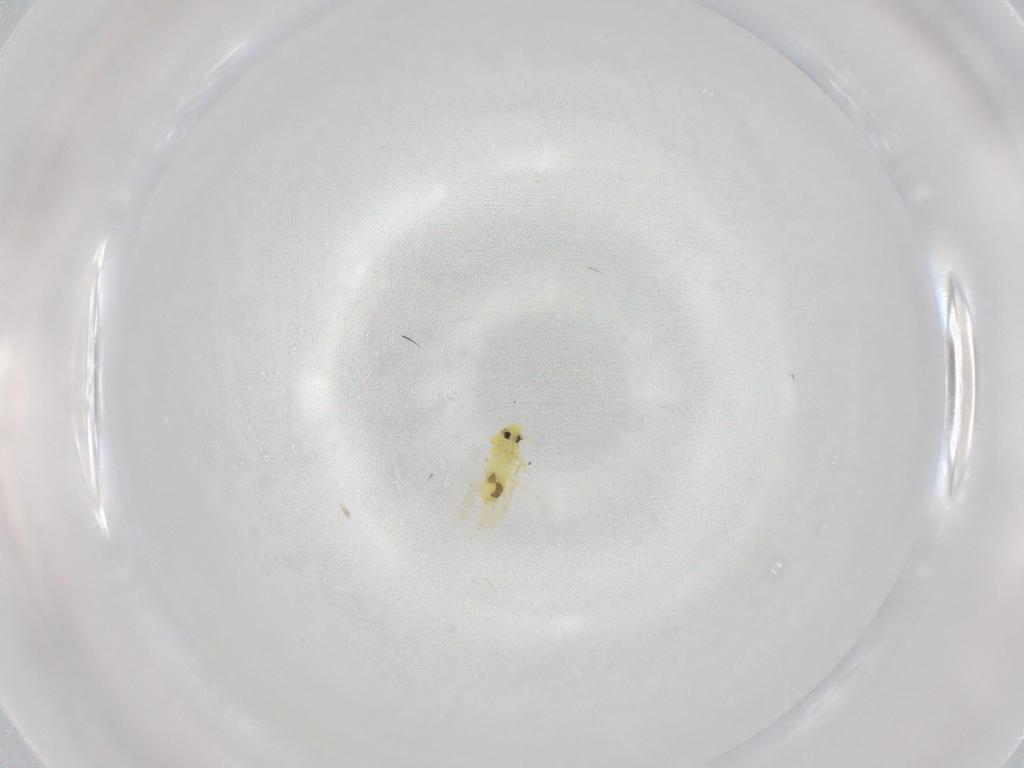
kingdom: Animalia
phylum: Arthropoda
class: Insecta
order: Hemiptera
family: Aleyrodidae
